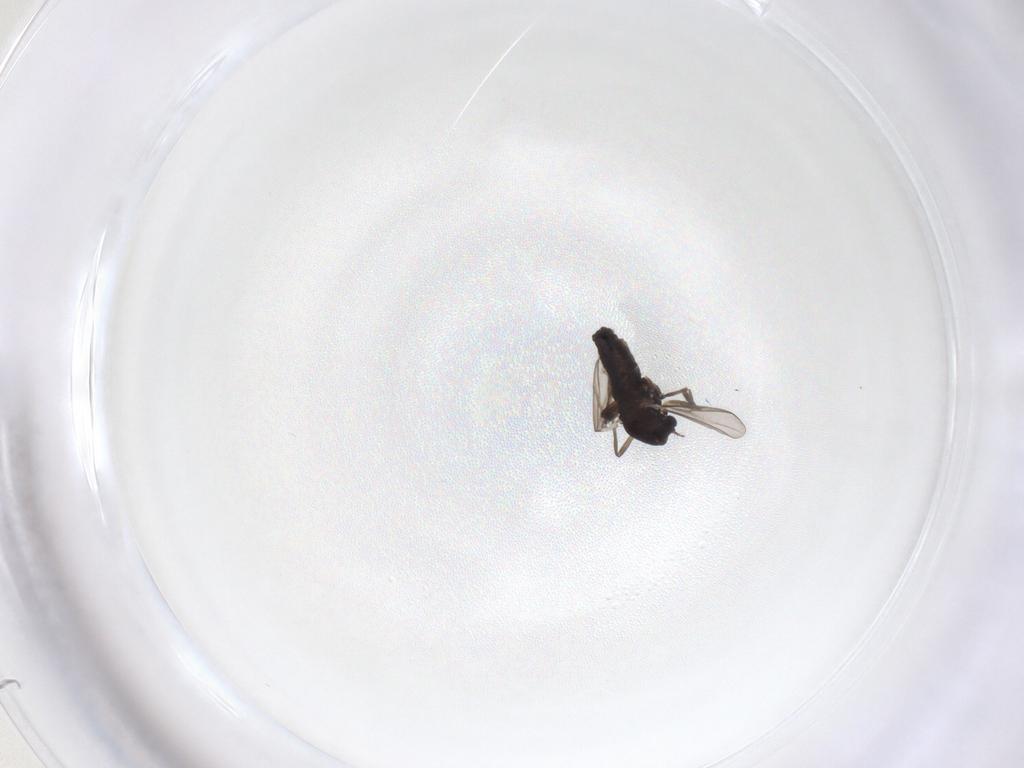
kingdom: Animalia
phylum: Arthropoda
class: Insecta
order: Diptera
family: Chironomidae
